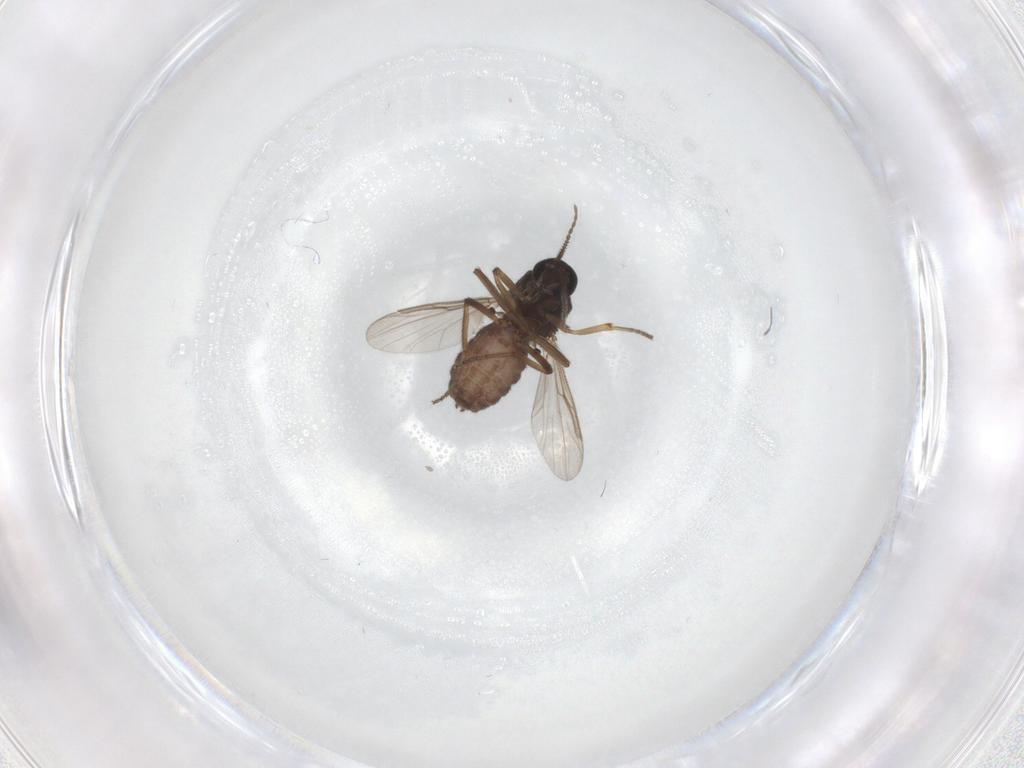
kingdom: Animalia
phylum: Arthropoda
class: Insecta
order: Diptera
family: Ceratopogonidae
